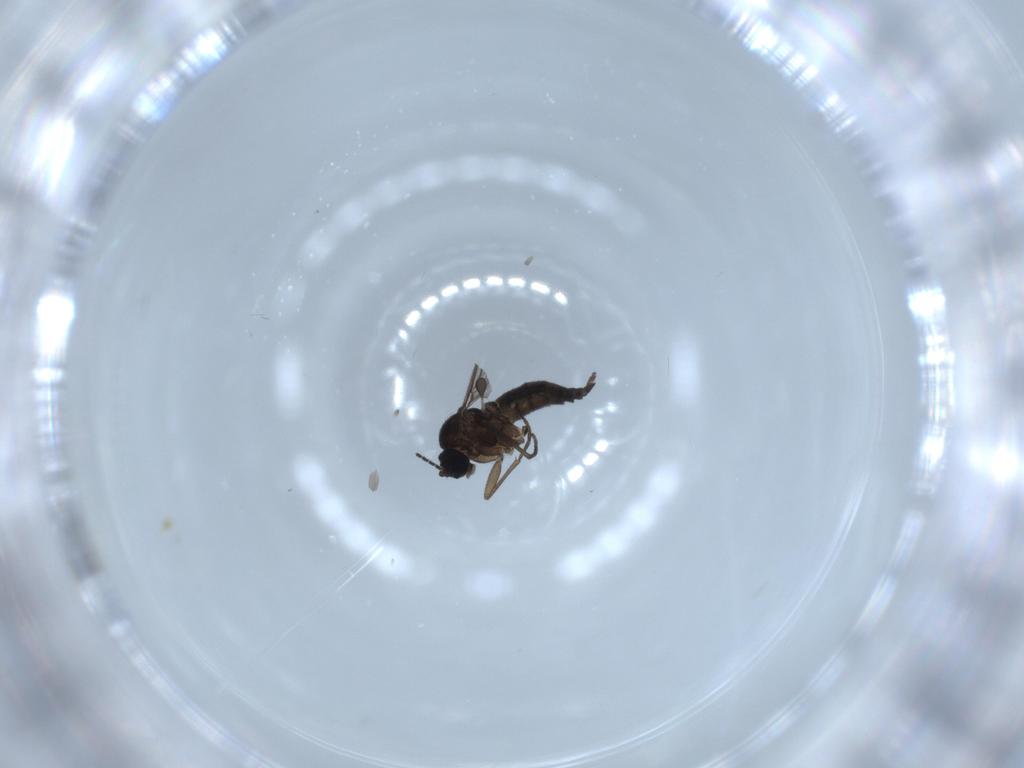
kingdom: Animalia
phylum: Arthropoda
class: Insecta
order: Diptera
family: Sciaridae
